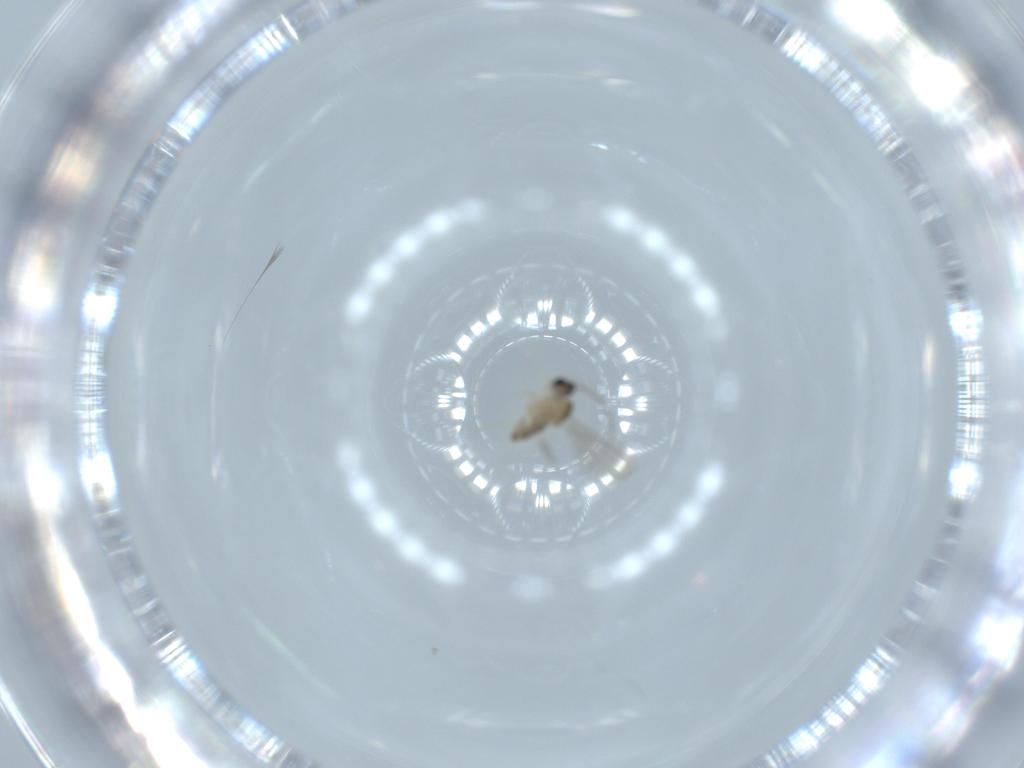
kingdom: Animalia
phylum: Arthropoda
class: Insecta
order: Diptera
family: Cecidomyiidae
